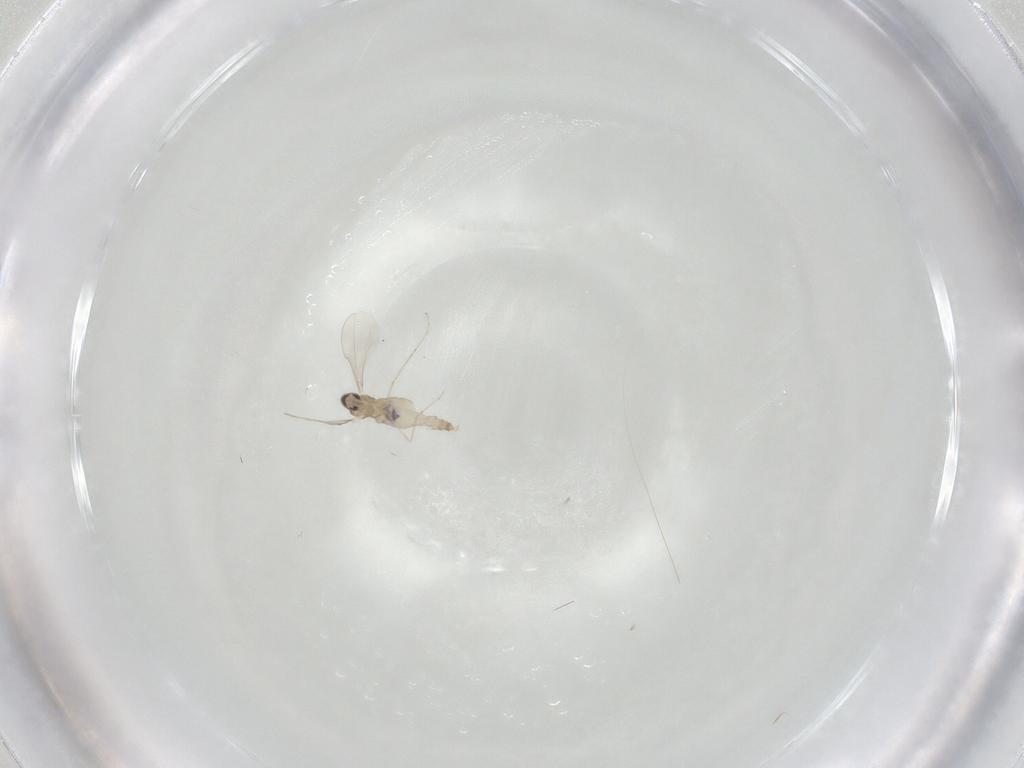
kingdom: Animalia
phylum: Arthropoda
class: Insecta
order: Diptera
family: Cecidomyiidae
